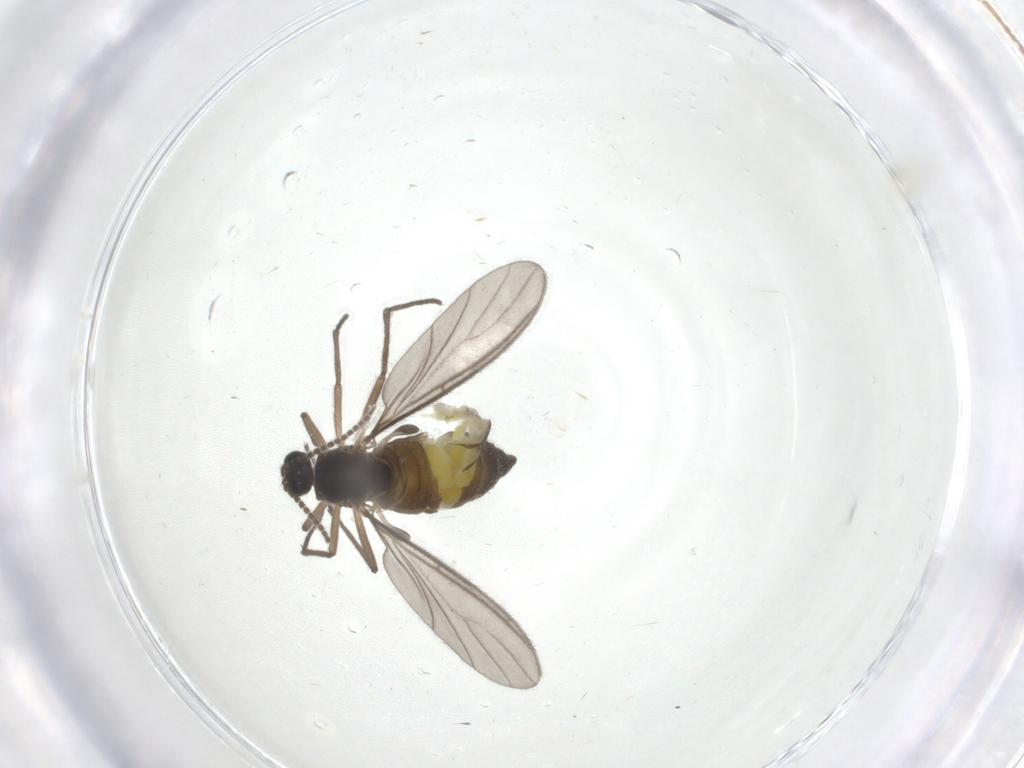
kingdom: Animalia
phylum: Arthropoda
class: Insecta
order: Diptera
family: Sciaridae
